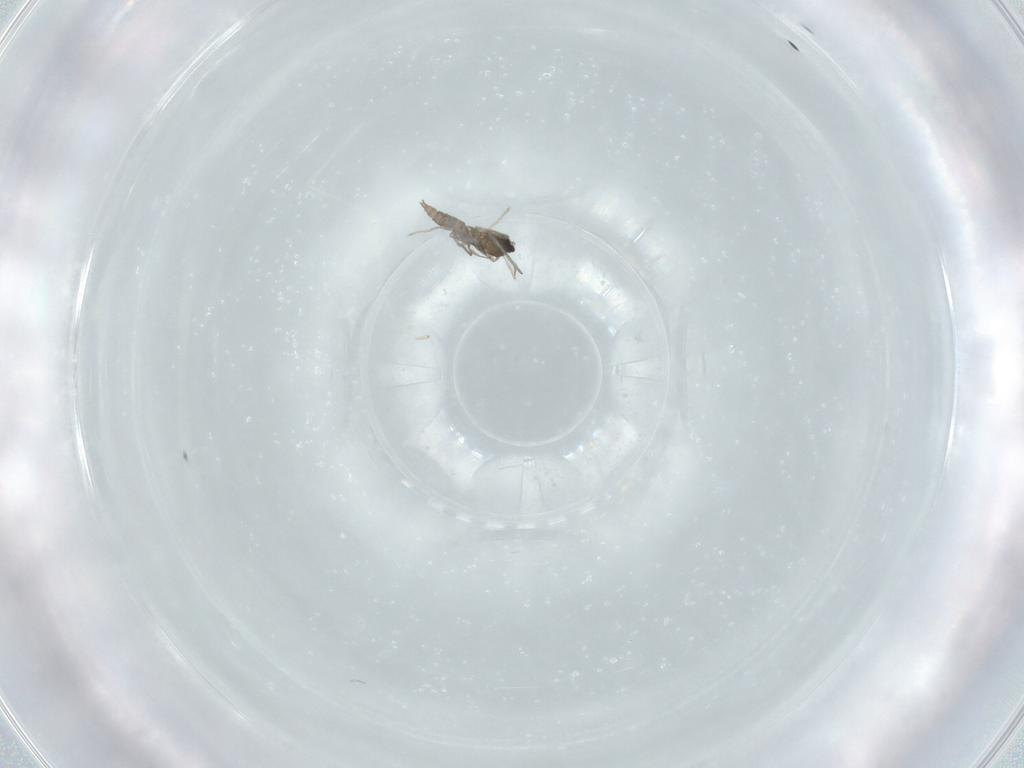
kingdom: Animalia
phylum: Arthropoda
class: Insecta
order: Diptera
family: Cecidomyiidae
